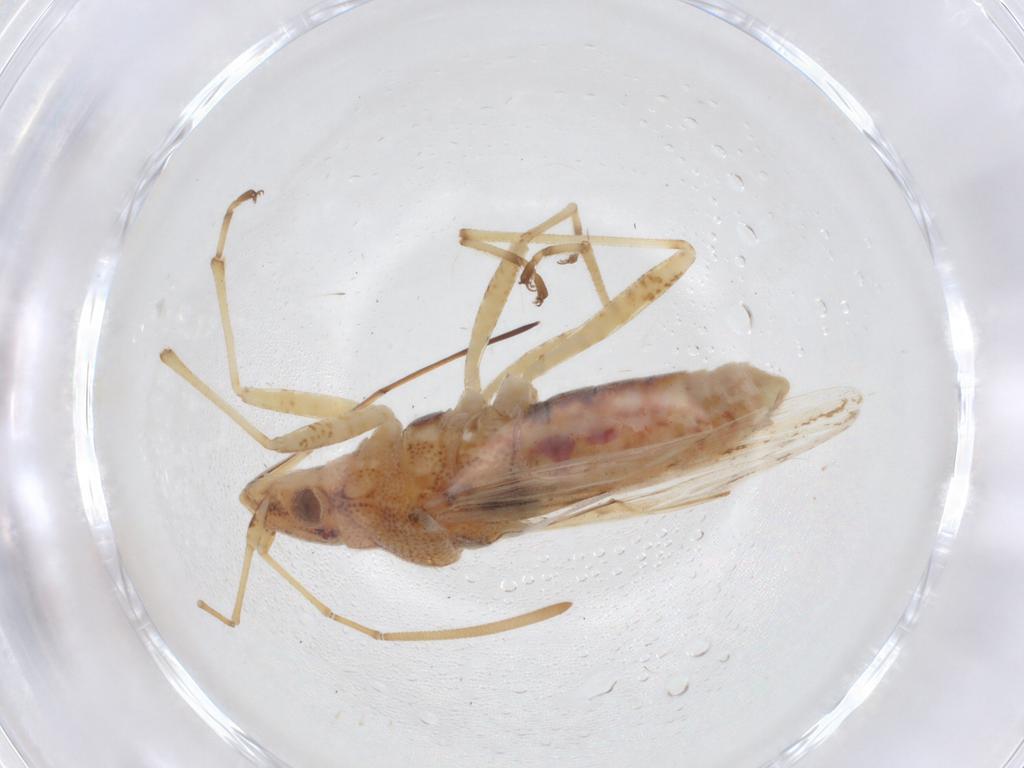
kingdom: Animalia
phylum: Arthropoda
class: Insecta
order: Hemiptera
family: Lygaeidae
